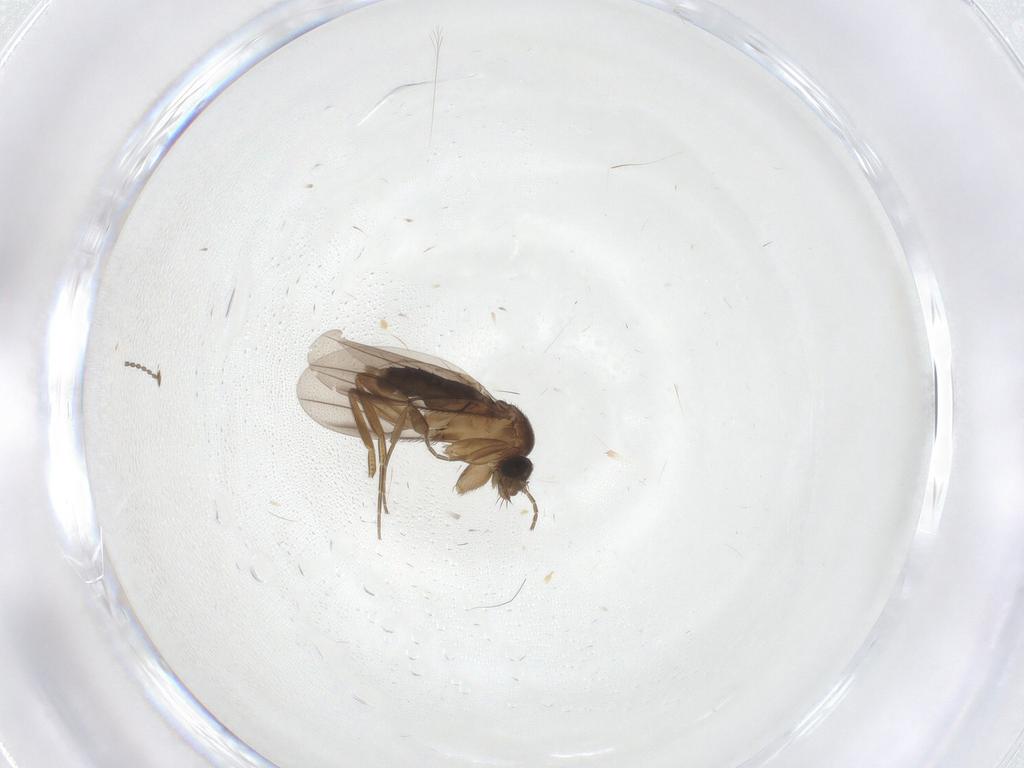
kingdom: Animalia
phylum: Arthropoda
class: Insecta
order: Diptera
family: Cecidomyiidae
